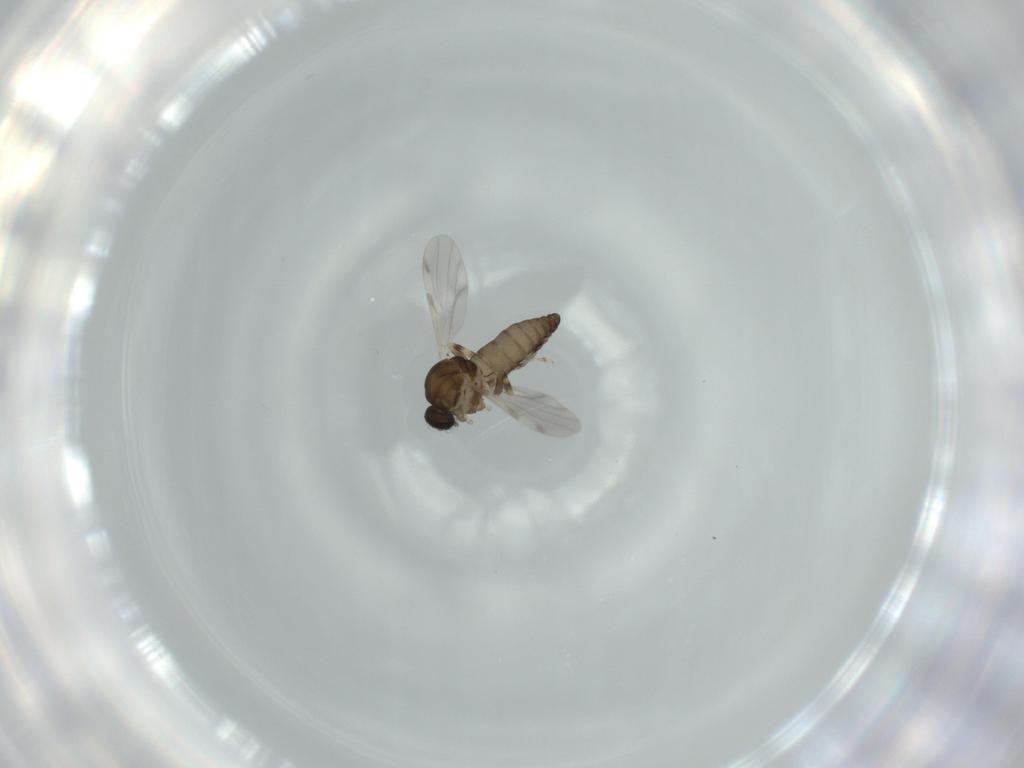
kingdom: Animalia
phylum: Arthropoda
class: Insecta
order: Diptera
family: Ceratopogonidae
